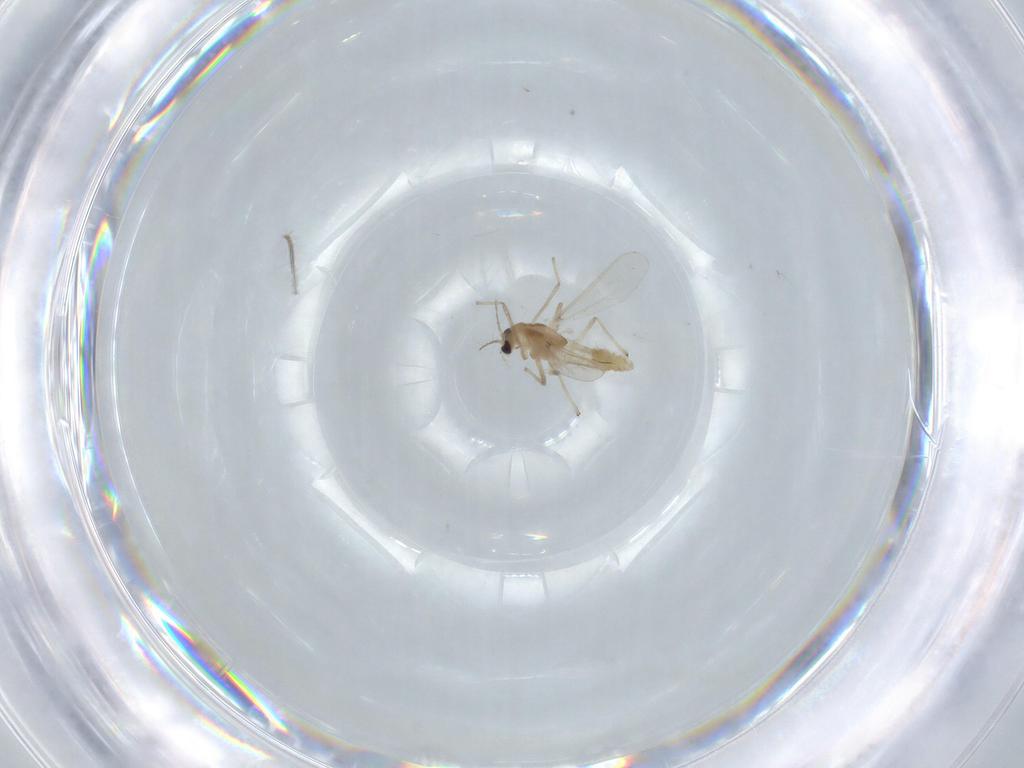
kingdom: Animalia
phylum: Arthropoda
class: Insecta
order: Diptera
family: Chironomidae
